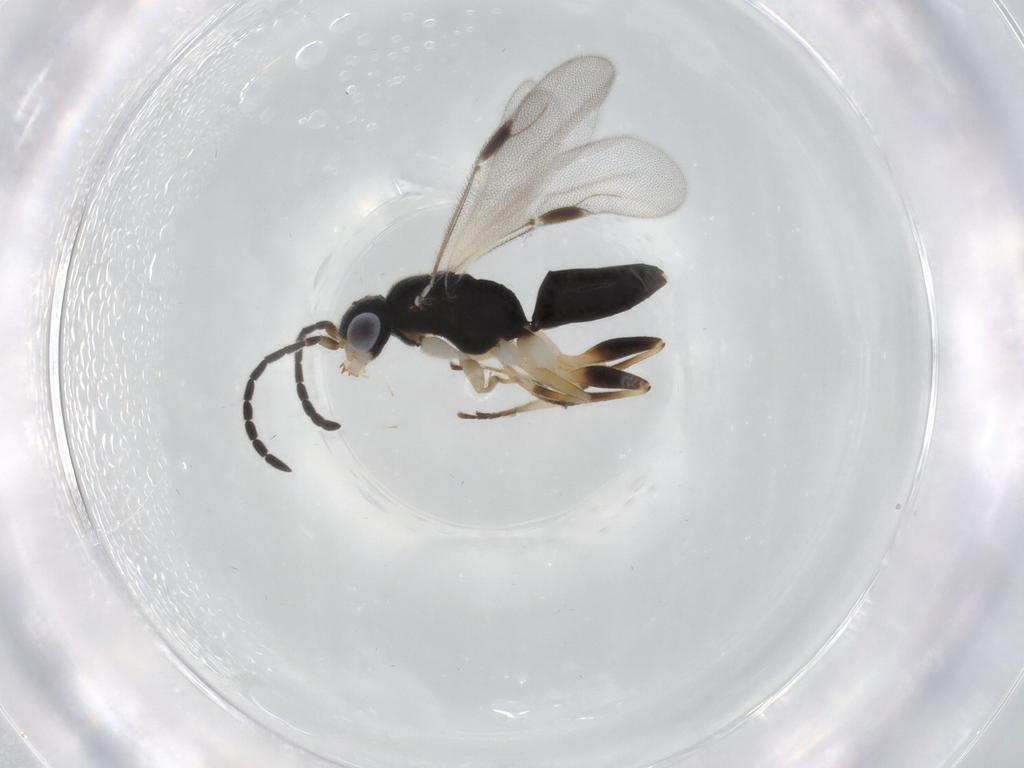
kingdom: Animalia
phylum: Arthropoda
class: Insecta
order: Hymenoptera
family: Dryinidae
